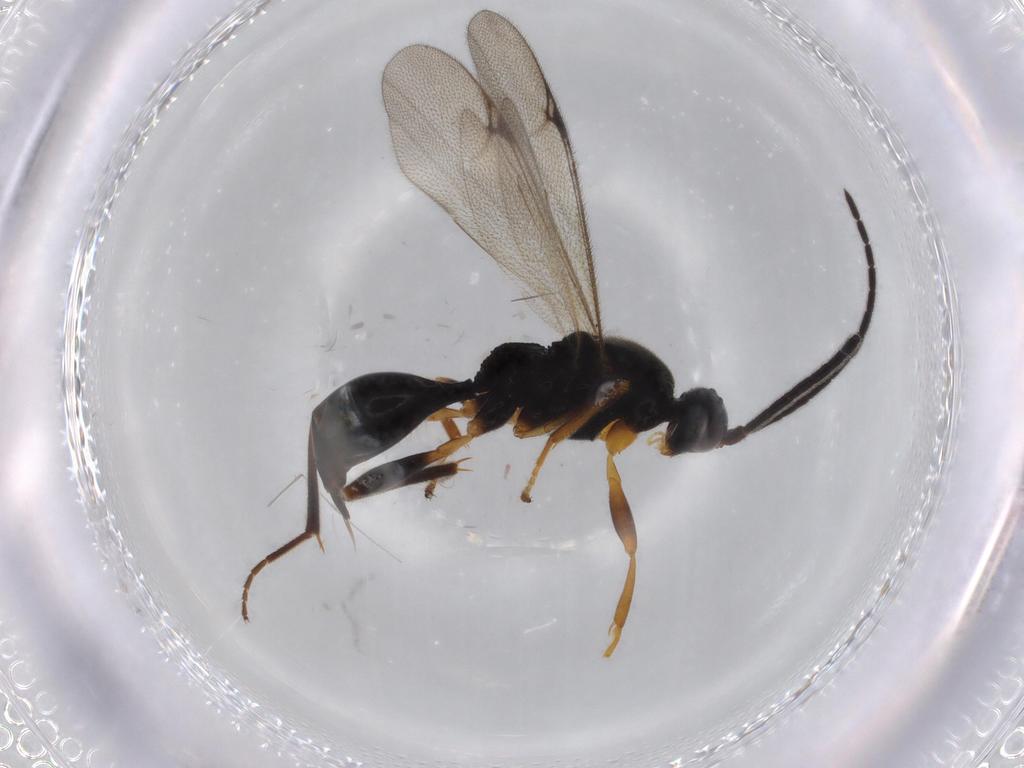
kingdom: Animalia
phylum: Arthropoda
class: Insecta
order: Hymenoptera
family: Proctotrupidae
